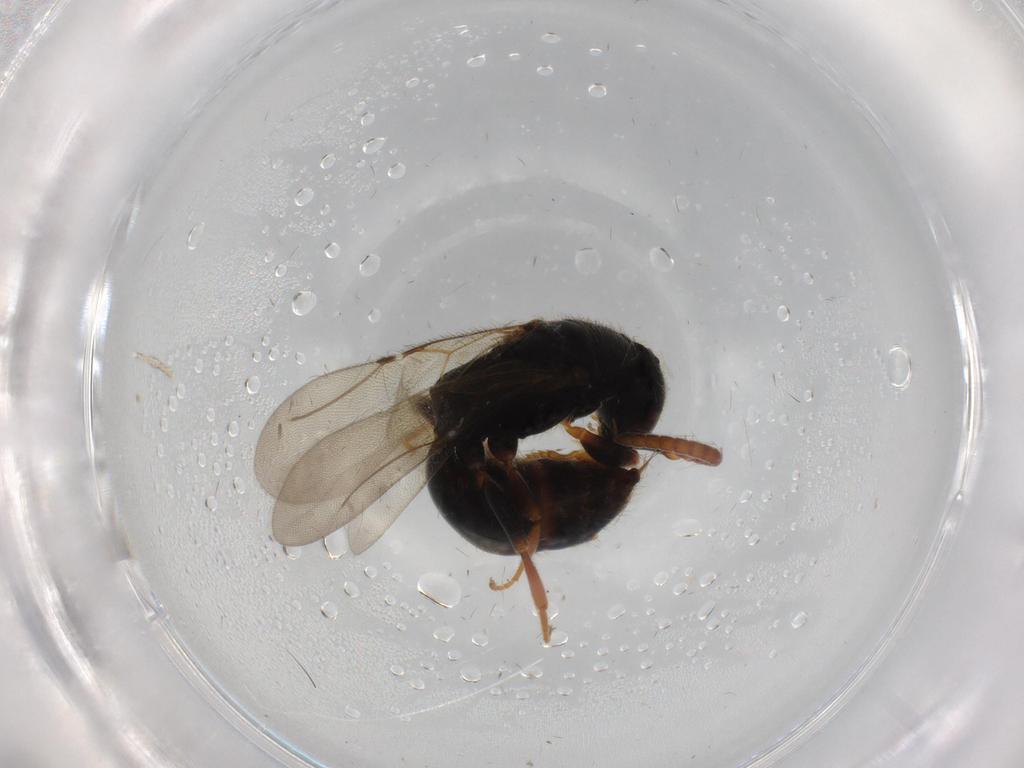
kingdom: Animalia
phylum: Arthropoda
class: Insecta
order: Hymenoptera
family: Bethylidae
